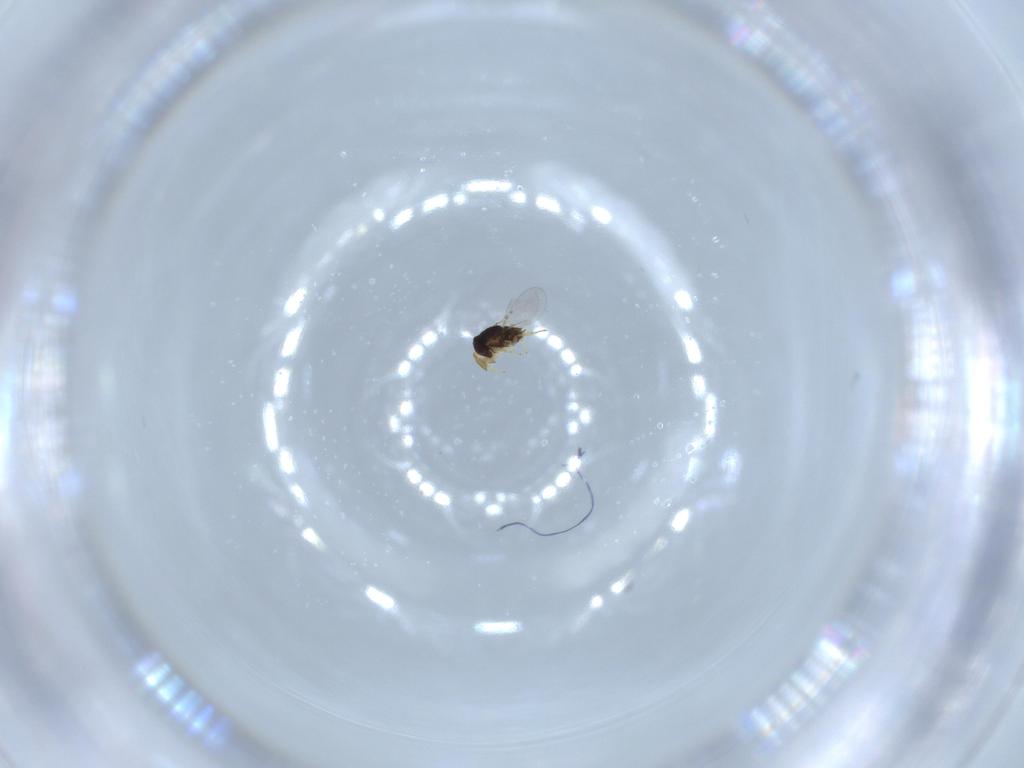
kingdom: Animalia
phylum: Arthropoda
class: Insecta
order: Hymenoptera
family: Encyrtidae
